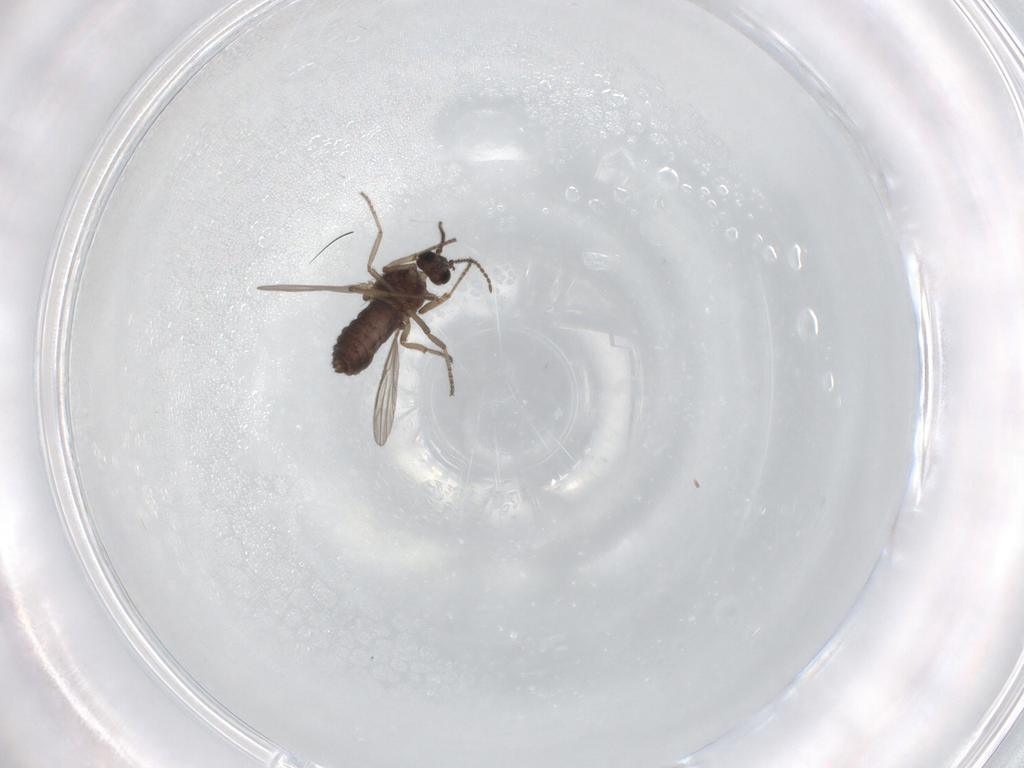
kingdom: Animalia
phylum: Arthropoda
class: Insecta
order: Diptera
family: Ceratopogonidae
